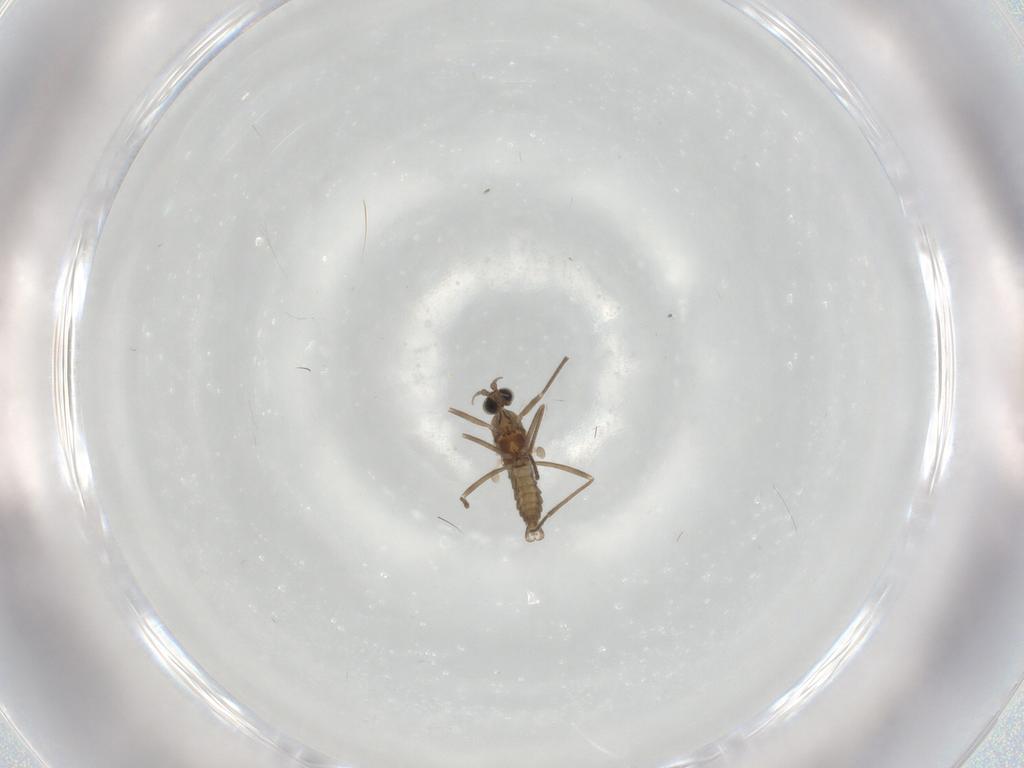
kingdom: Animalia
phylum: Arthropoda
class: Insecta
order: Diptera
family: Cecidomyiidae
